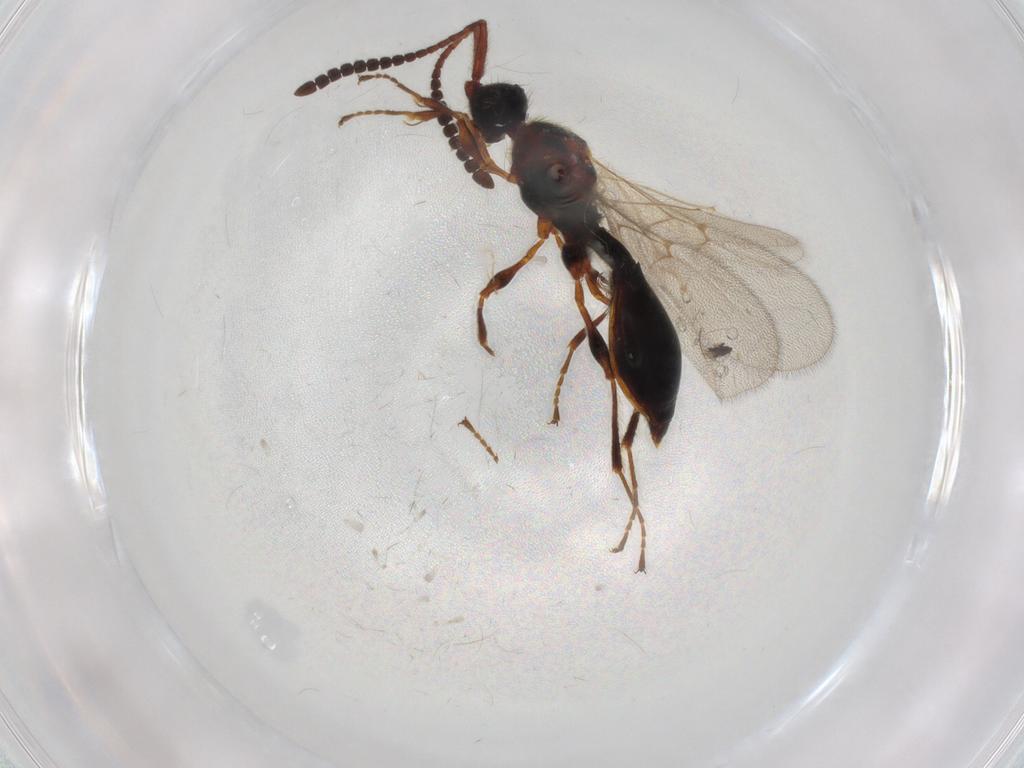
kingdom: Animalia
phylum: Arthropoda
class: Insecta
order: Hymenoptera
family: Diapriidae
